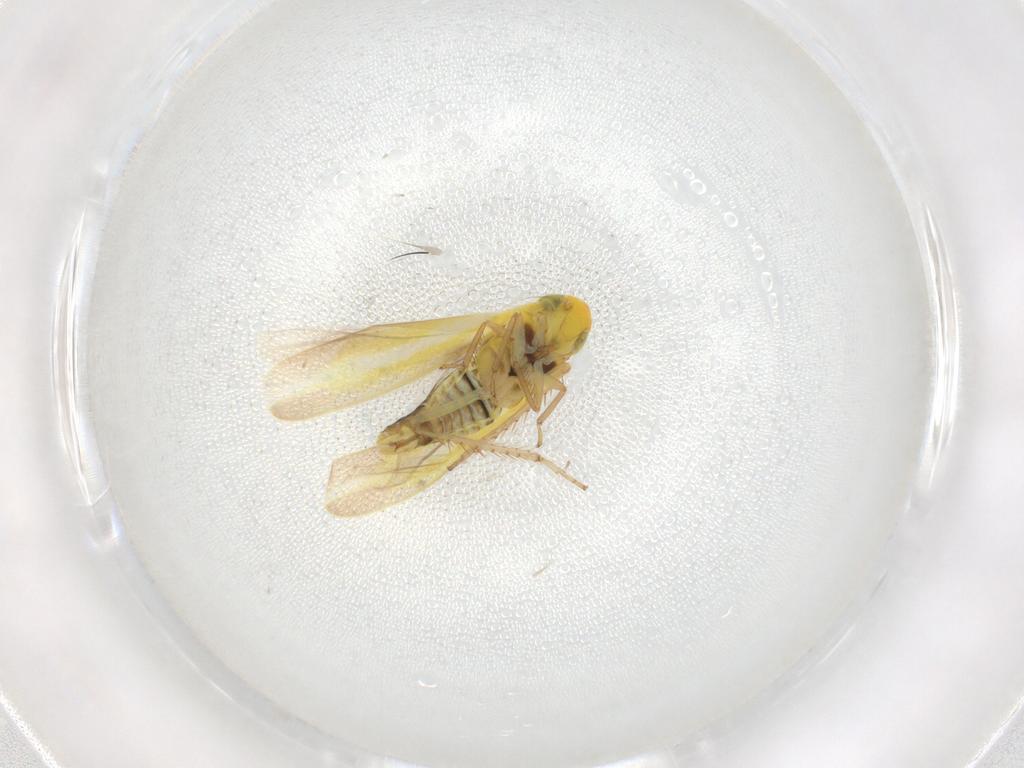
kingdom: Animalia
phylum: Arthropoda
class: Insecta
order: Hemiptera
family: Cicadellidae
